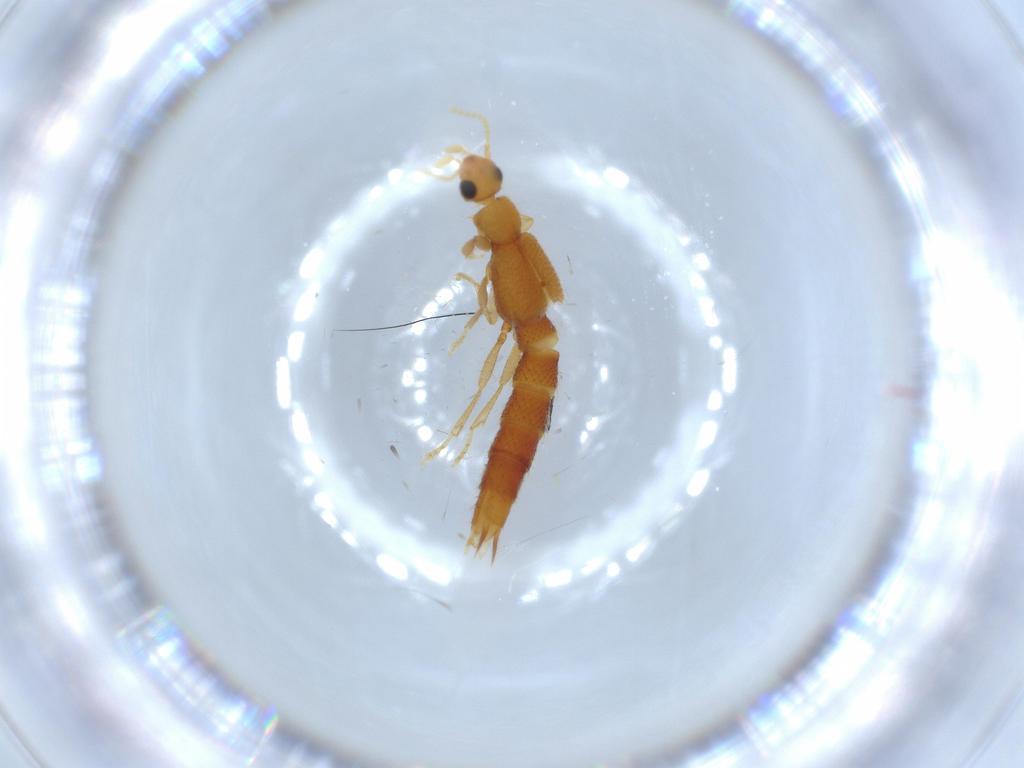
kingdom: Animalia
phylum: Arthropoda
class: Insecta
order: Coleoptera
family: Staphylinidae
